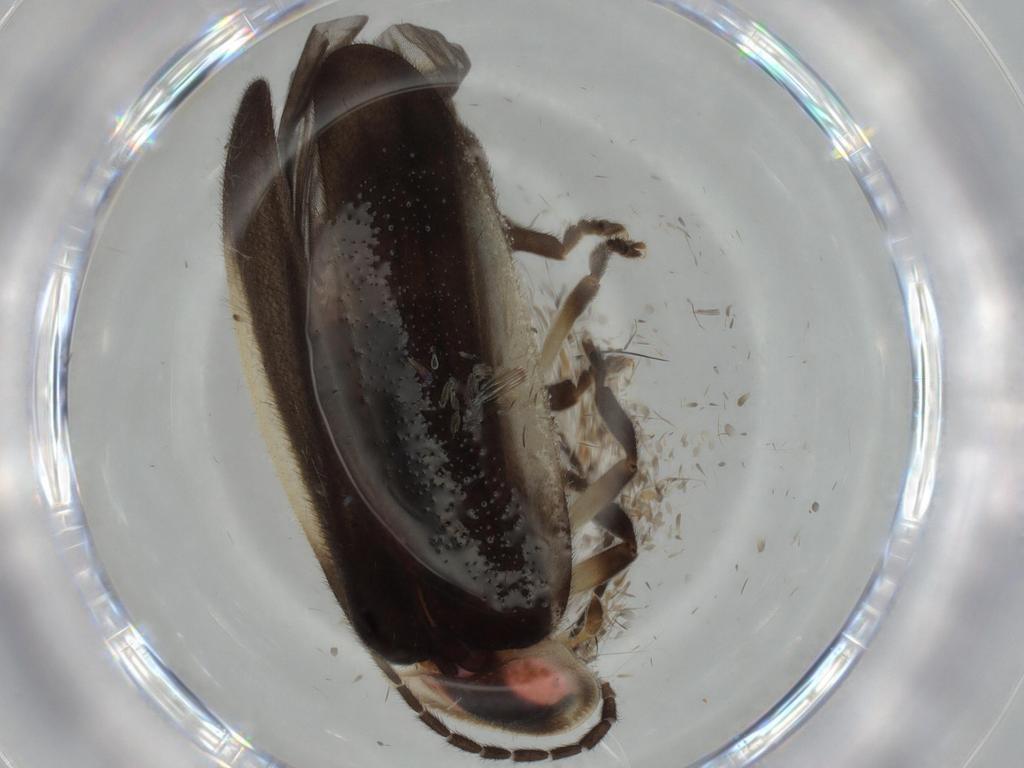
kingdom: Animalia
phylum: Arthropoda
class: Insecta
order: Coleoptera
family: Lampyridae
